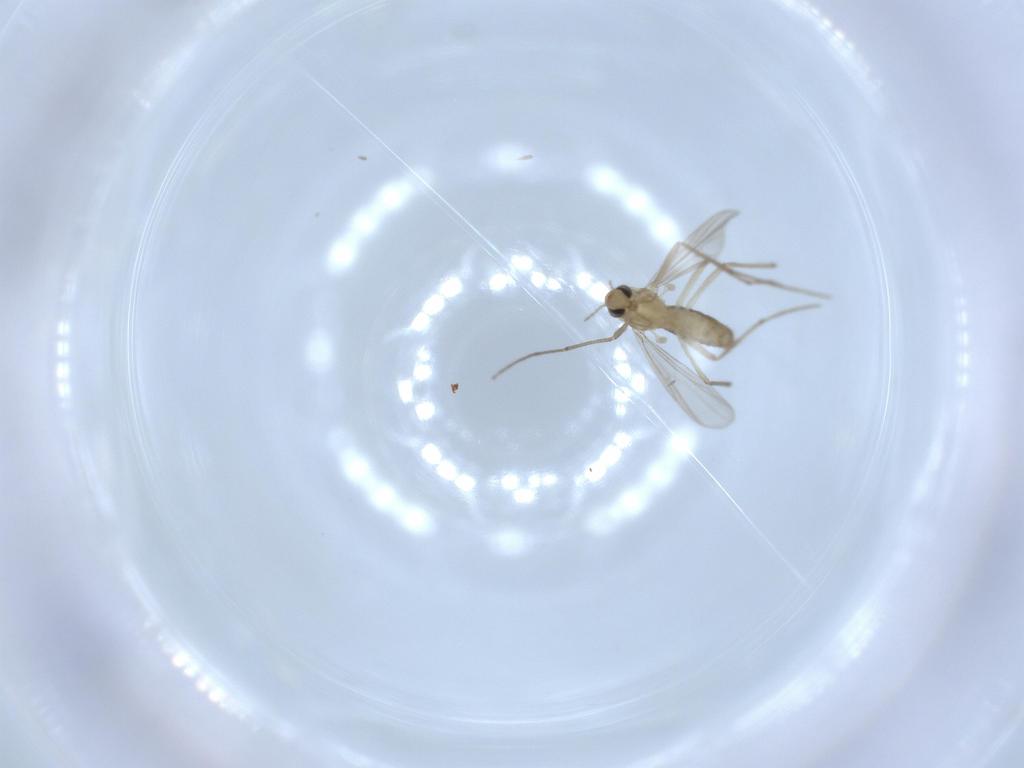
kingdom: Animalia
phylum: Arthropoda
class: Insecta
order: Diptera
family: Chironomidae
